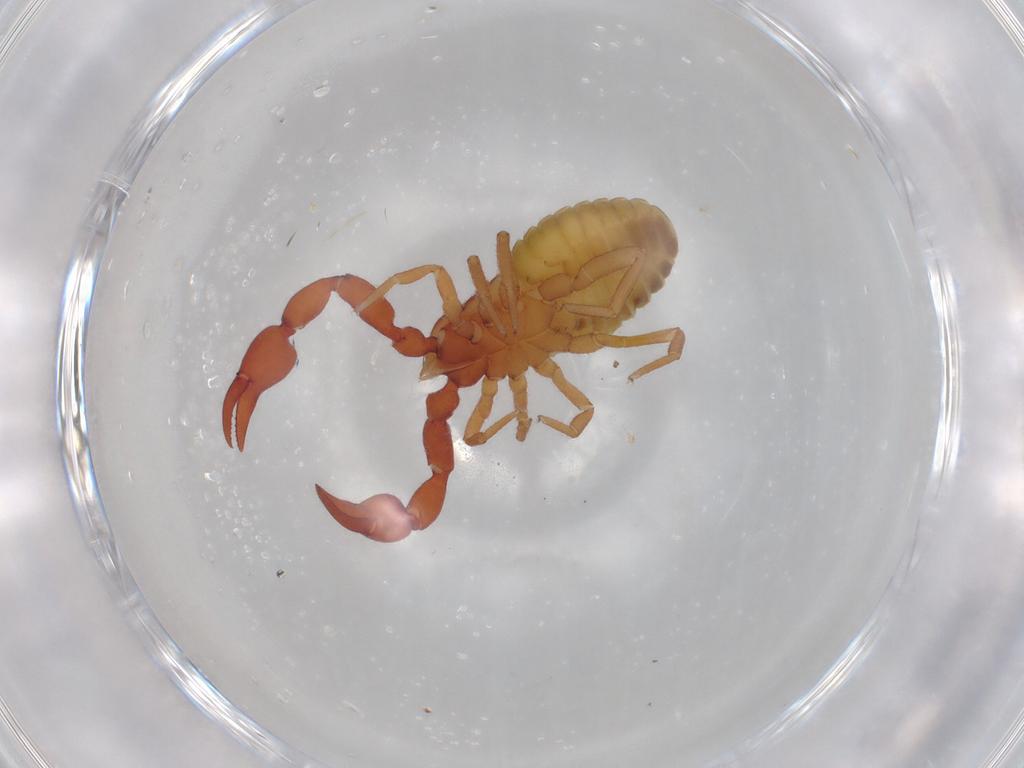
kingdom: Animalia
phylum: Arthropoda
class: Arachnida
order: Pseudoscorpiones
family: Chernetidae
